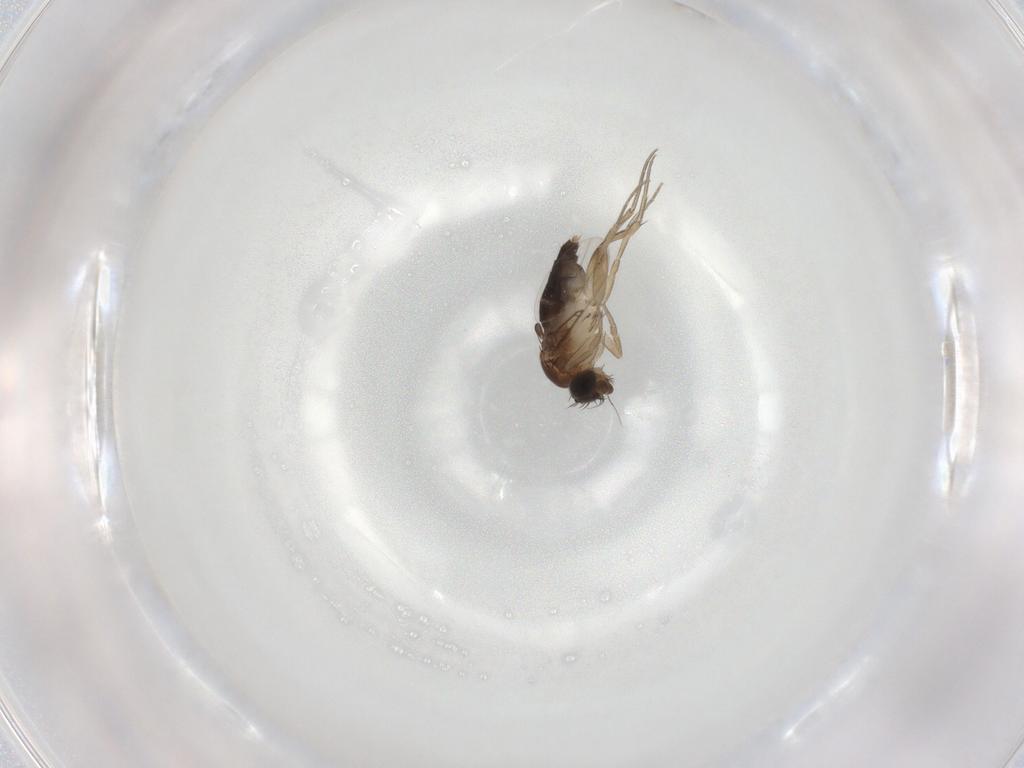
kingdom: Animalia
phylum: Arthropoda
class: Insecta
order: Diptera
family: Phoridae
